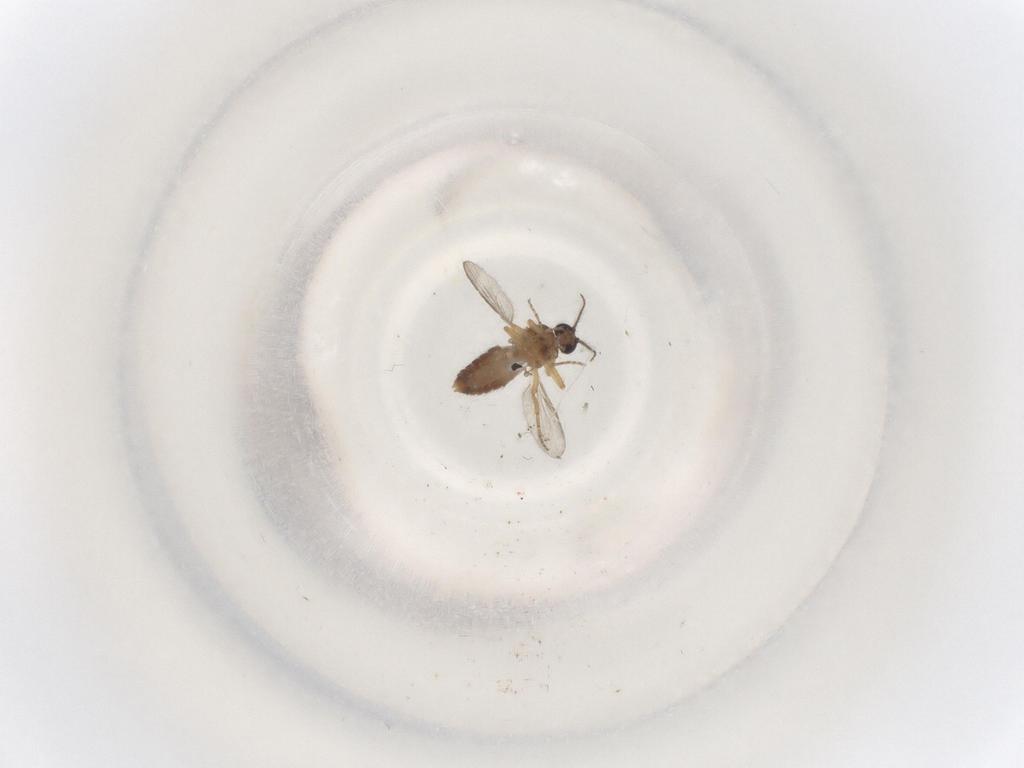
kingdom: Animalia
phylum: Arthropoda
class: Insecta
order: Diptera
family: Ceratopogonidae
